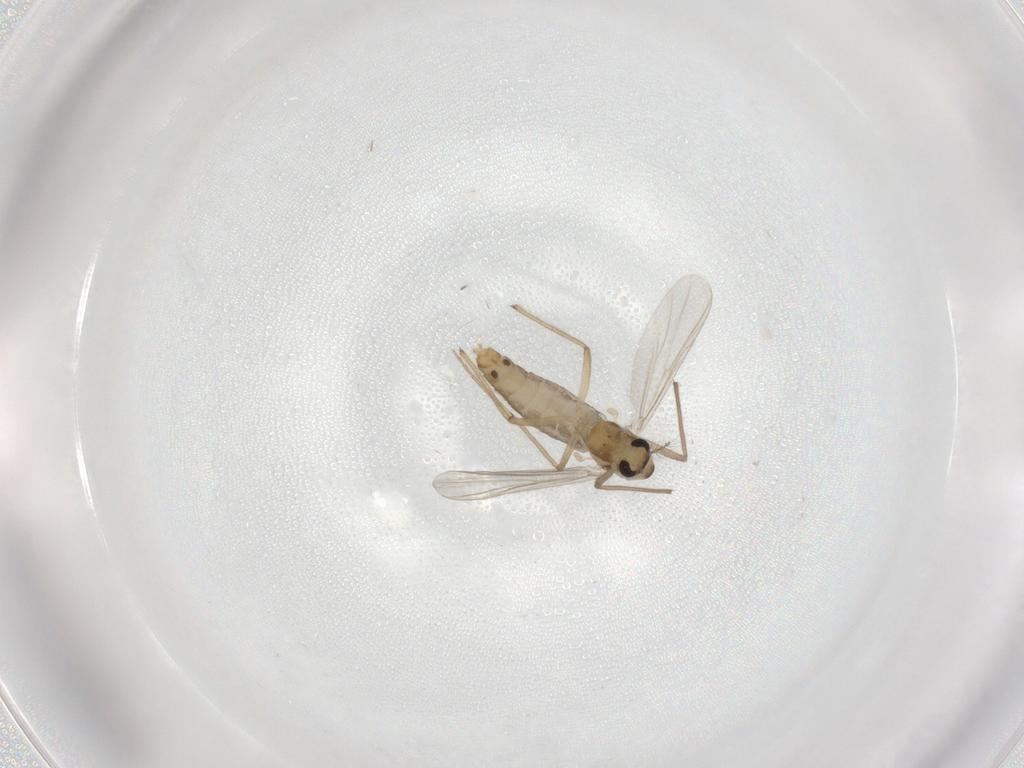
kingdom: Animalia
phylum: Arthropoda
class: Insecta
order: Diptera
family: Chironomidae
